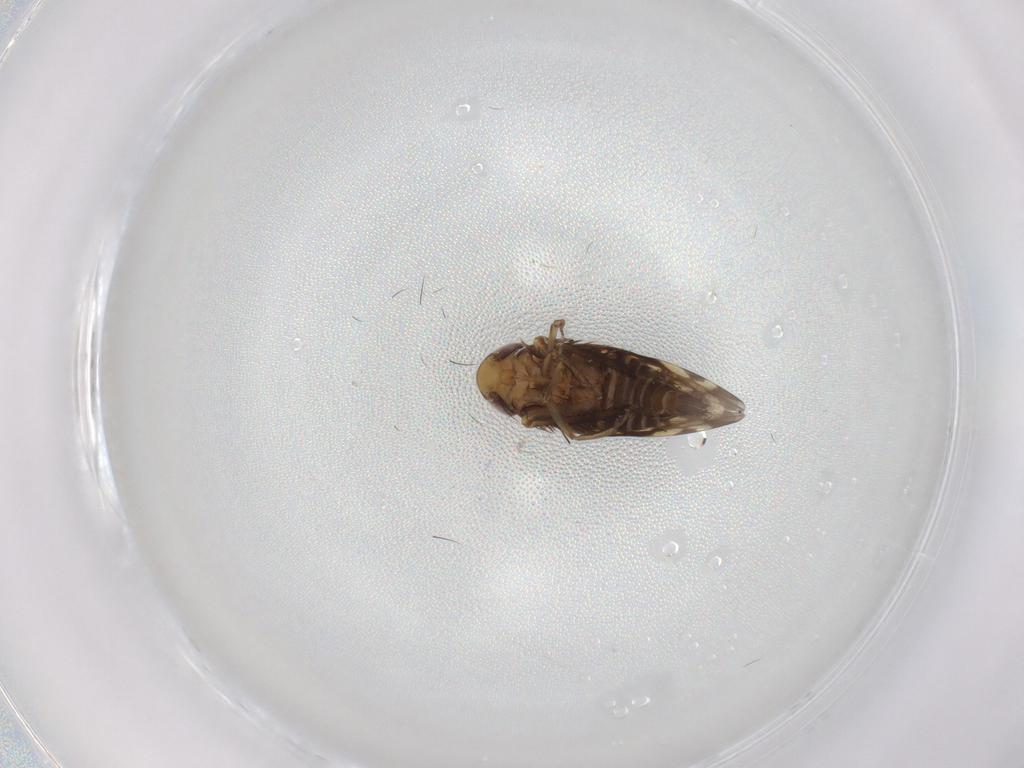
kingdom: Animalia
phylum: Arthropoda
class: Insecta
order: Hemiptera
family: Cicadellidae
